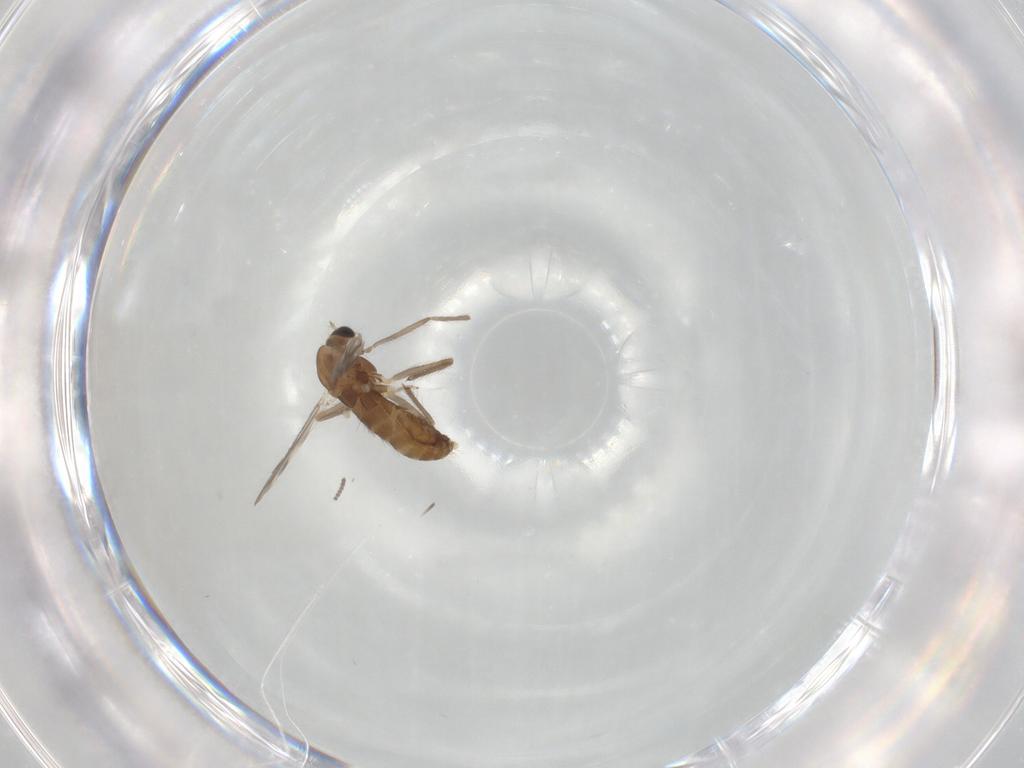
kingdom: Animalia
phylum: Arthropoda
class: Insecta
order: Diptera
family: Chironomidae
